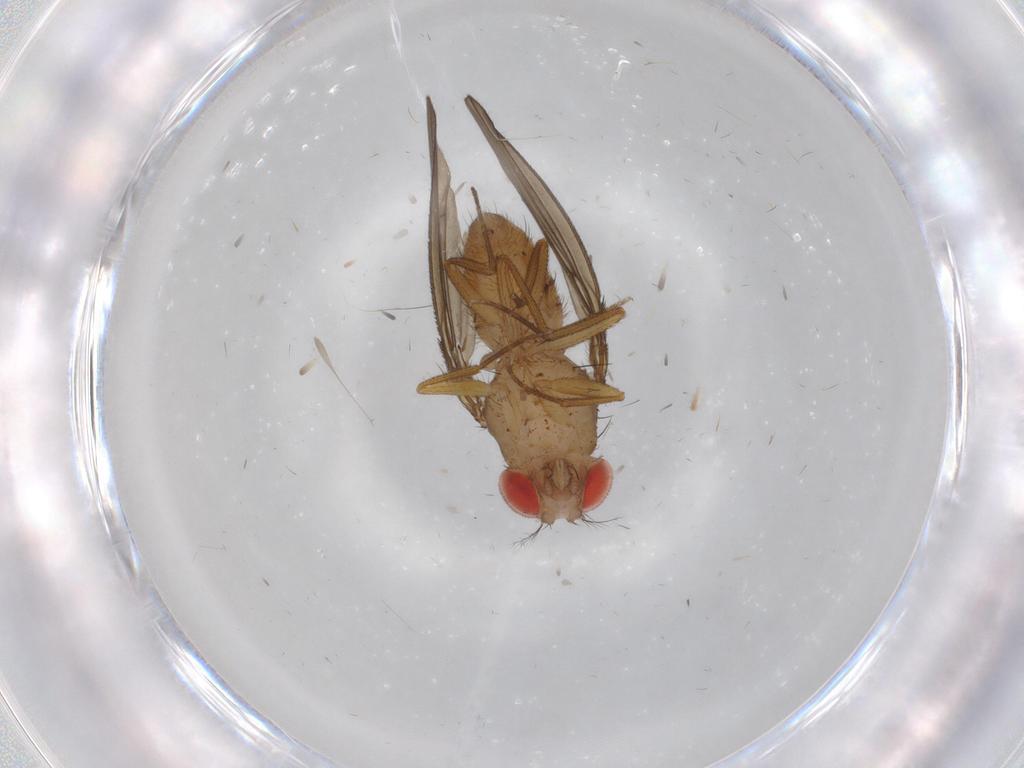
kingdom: Animalia
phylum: Arthropoda
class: Insecta
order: Diptera
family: Drosophilidae
